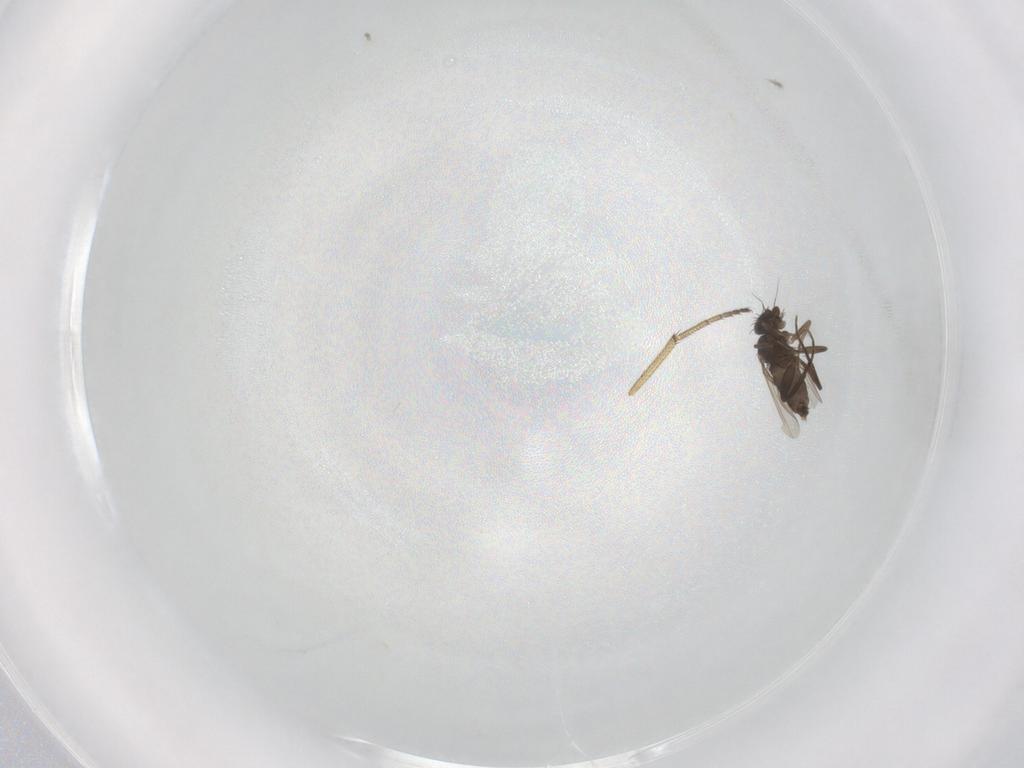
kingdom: Animalia
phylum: Arthropoda
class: Insecta
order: Diptera
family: Phoridae
